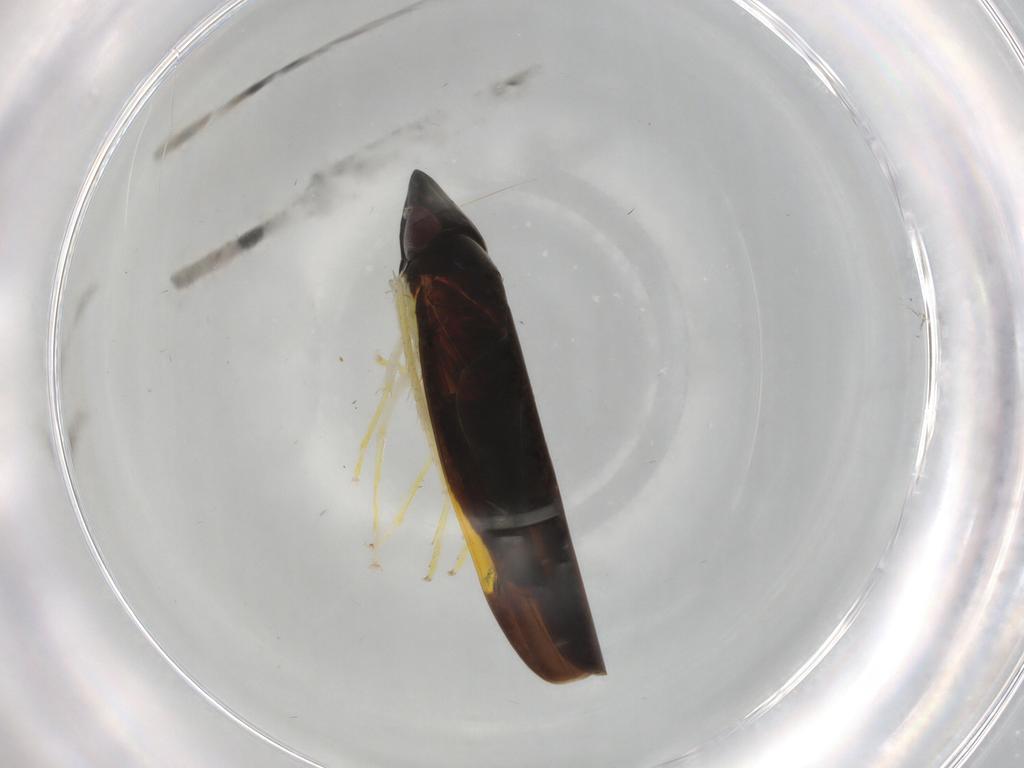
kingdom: Animalia
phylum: Arthropoda
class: Insecta
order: Hemiptera
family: Cicadellidae
